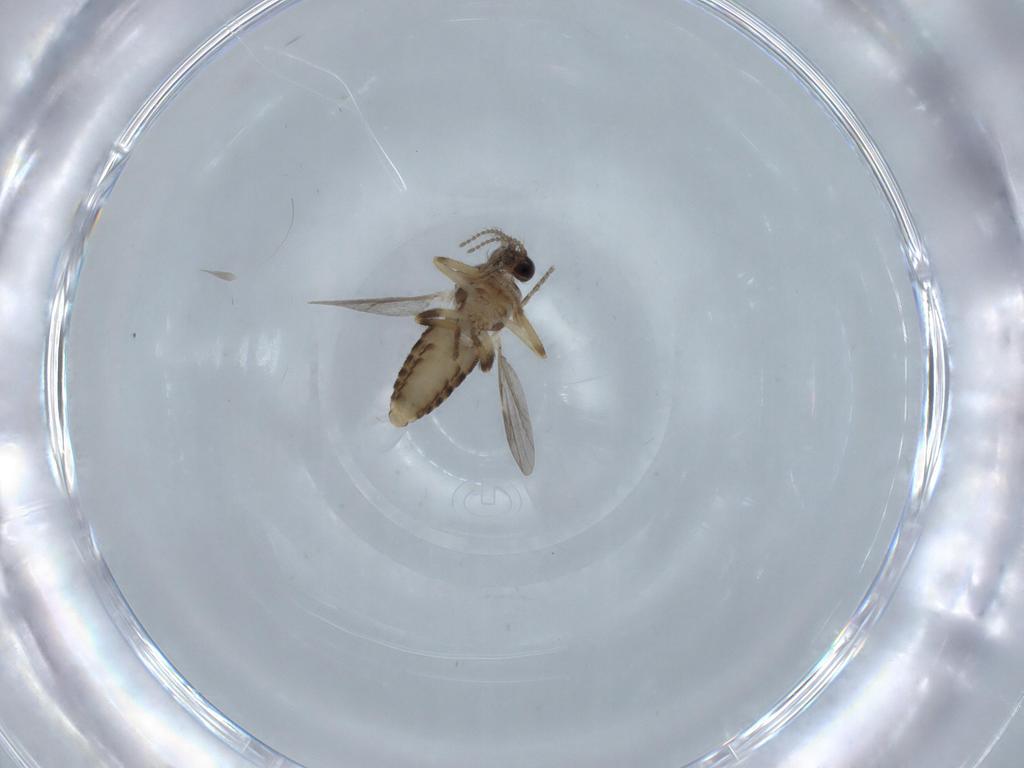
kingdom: Animalia
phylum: Arthropoda
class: Insecta
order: Diptera
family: Ceratopogonidae
